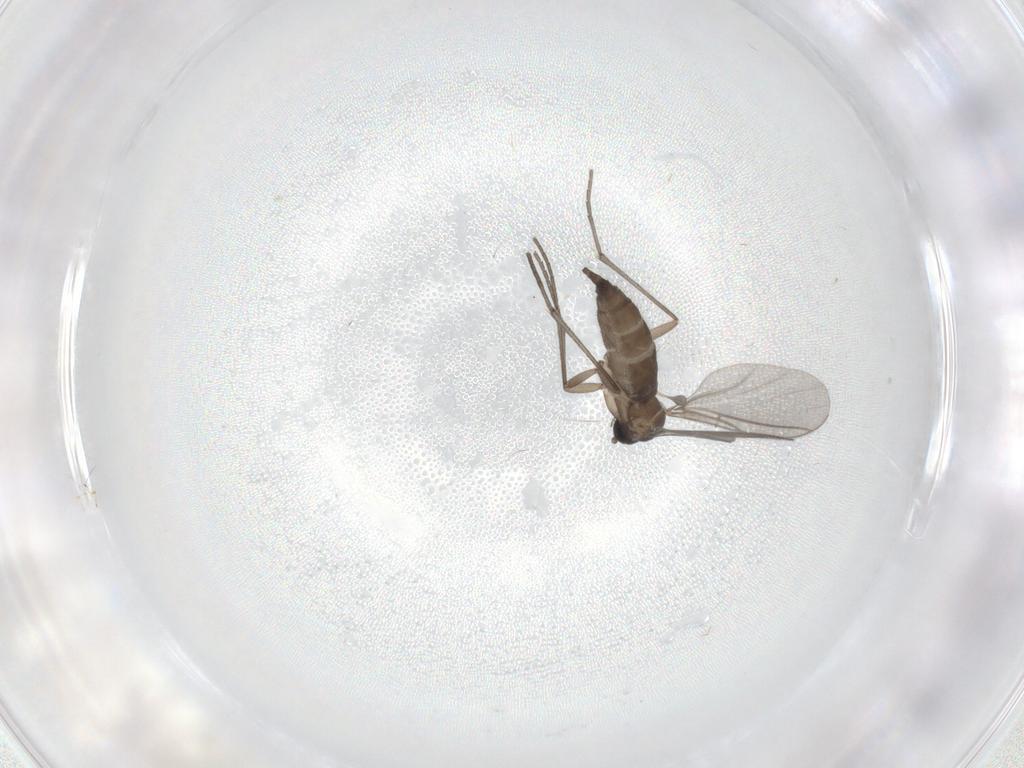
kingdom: Animalia
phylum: Arthropoda
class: Insecta
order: Diptera
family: Sciaridae
